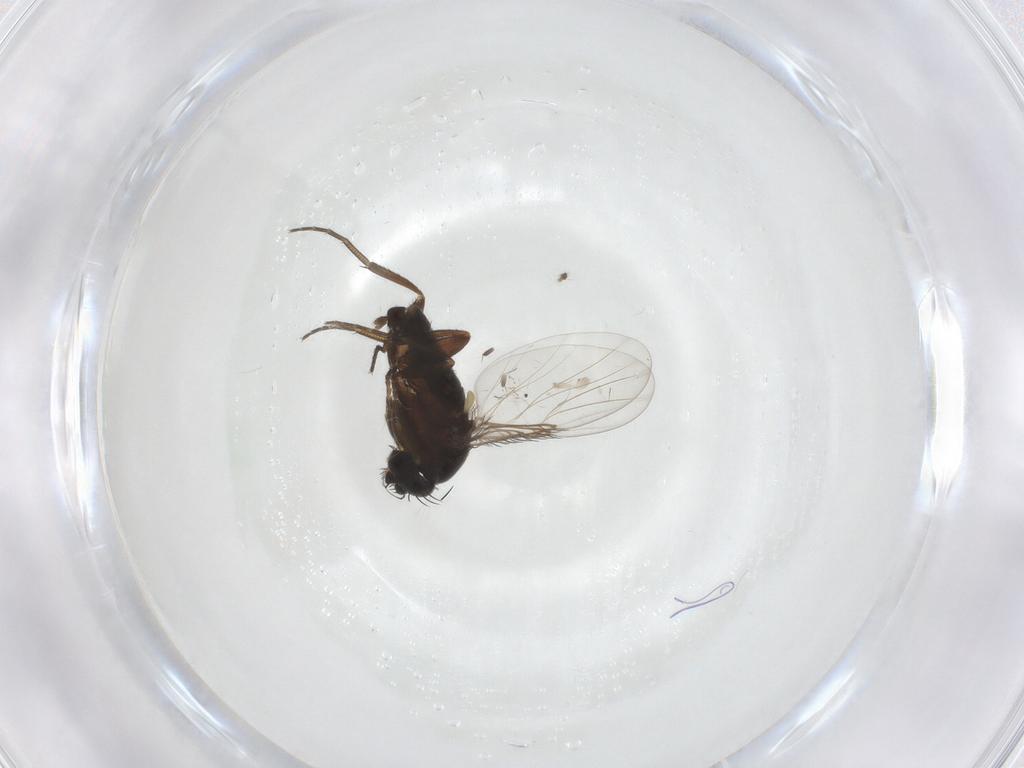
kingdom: Animalia
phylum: Arthropoda
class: Insecta
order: Diptera
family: Phoridae
